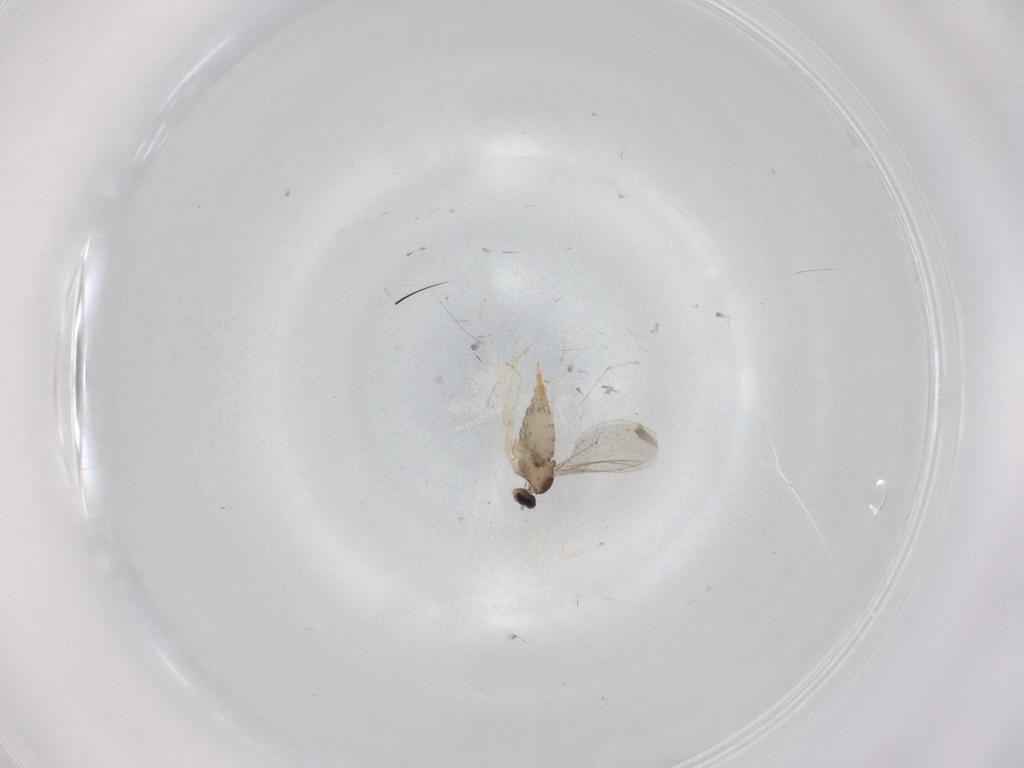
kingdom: Animalia
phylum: Arthropoda
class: Insecta
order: Diptera
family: Cecidomyiidae
